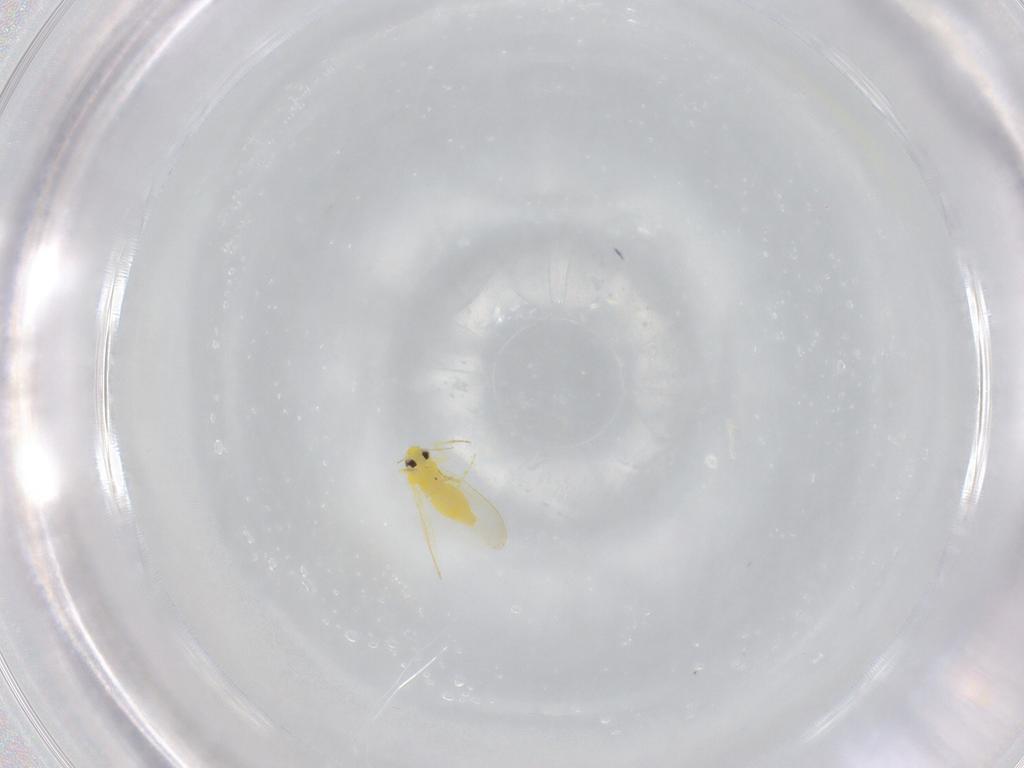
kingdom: Animalia
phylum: Arthropoda
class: Insecta
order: Hemiptera
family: Aleyrodidae
